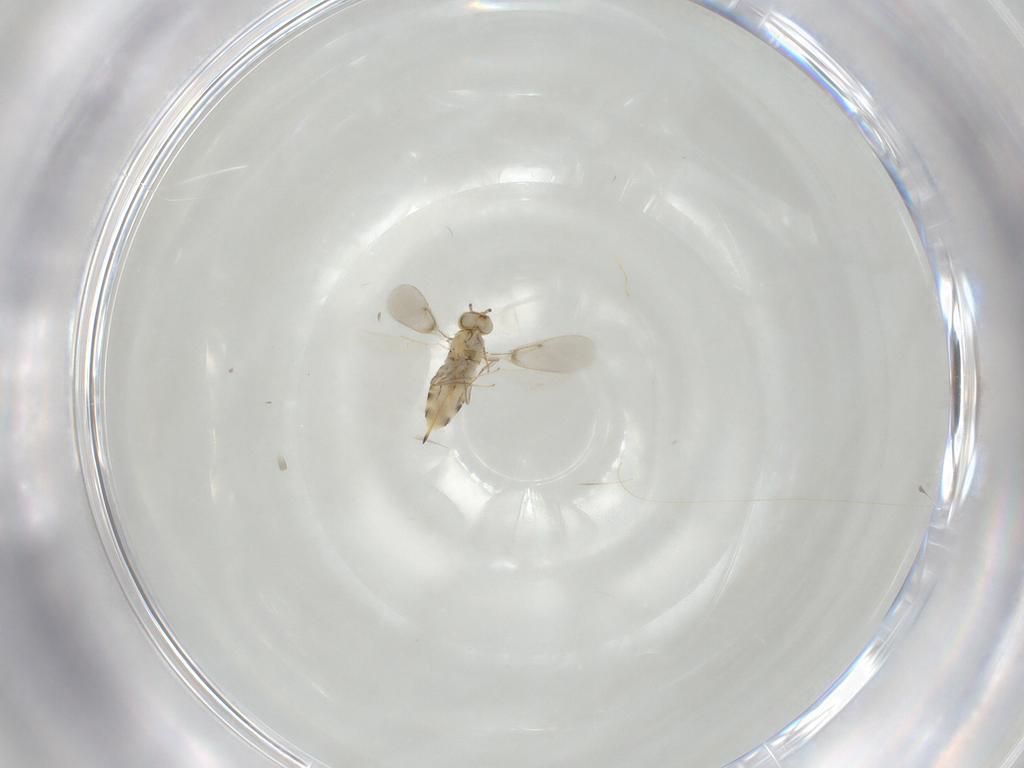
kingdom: Animalia
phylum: Arthropoda
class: Insecta
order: Hymenoptera
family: Aphelinidae
